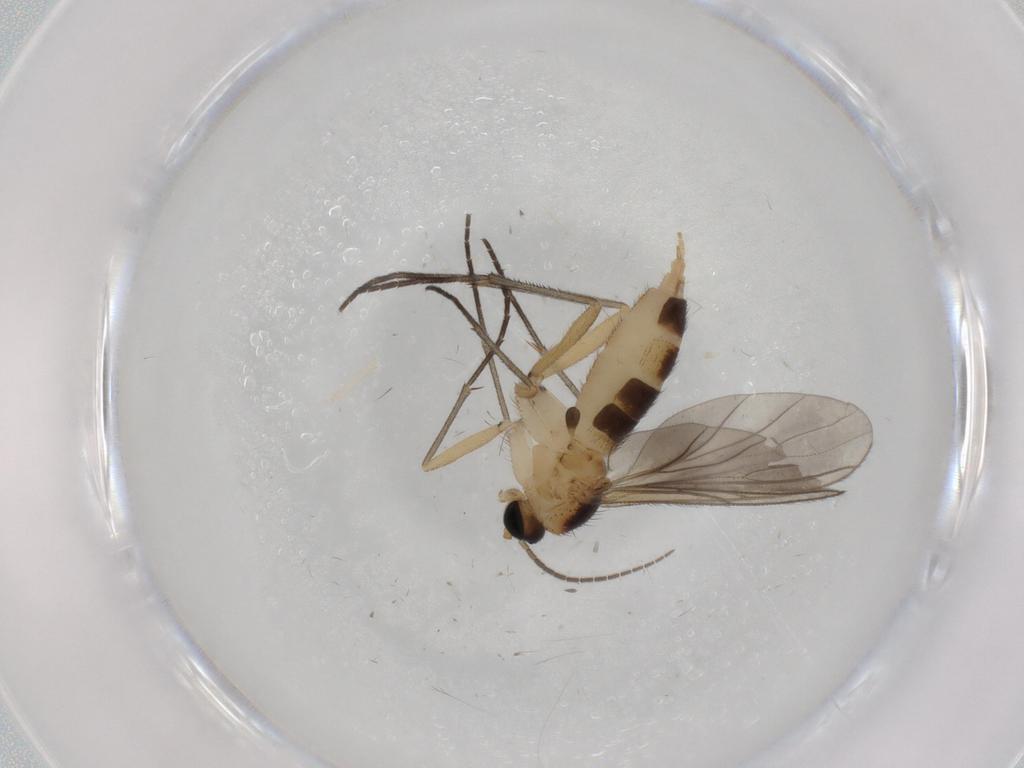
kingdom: Animalia
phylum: Arthropoda
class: Insecta
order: Diptera
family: Sciaridae
